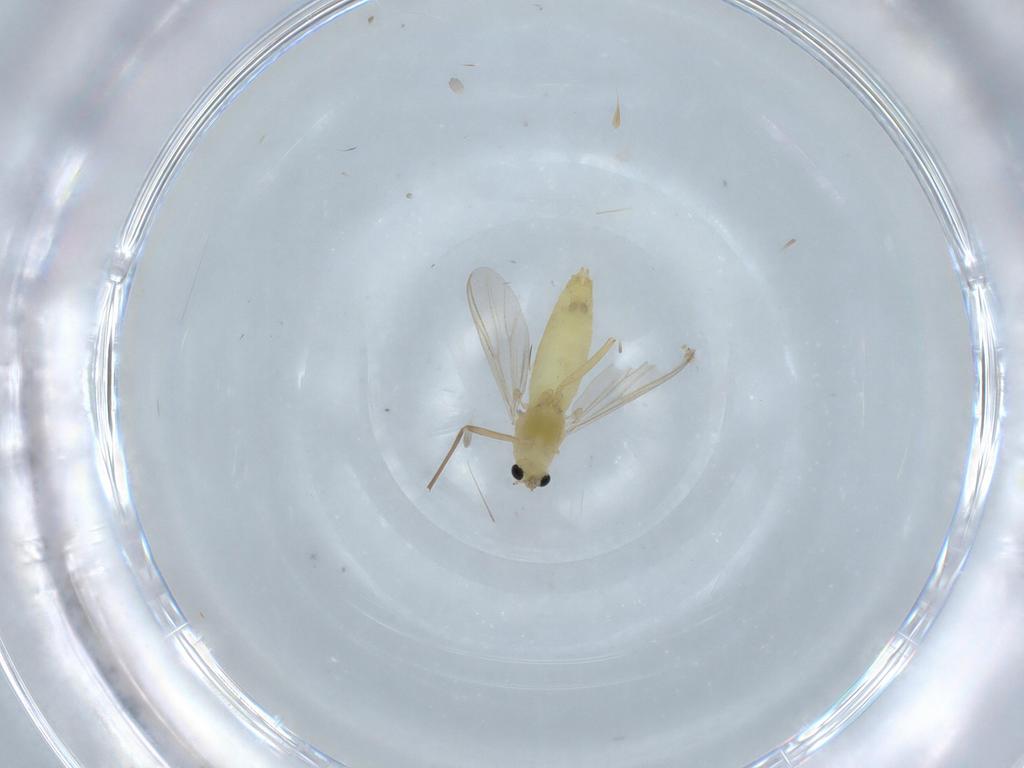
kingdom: Animalia
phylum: Arthropoda
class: Insecta
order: Diptera
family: Chironomidae
